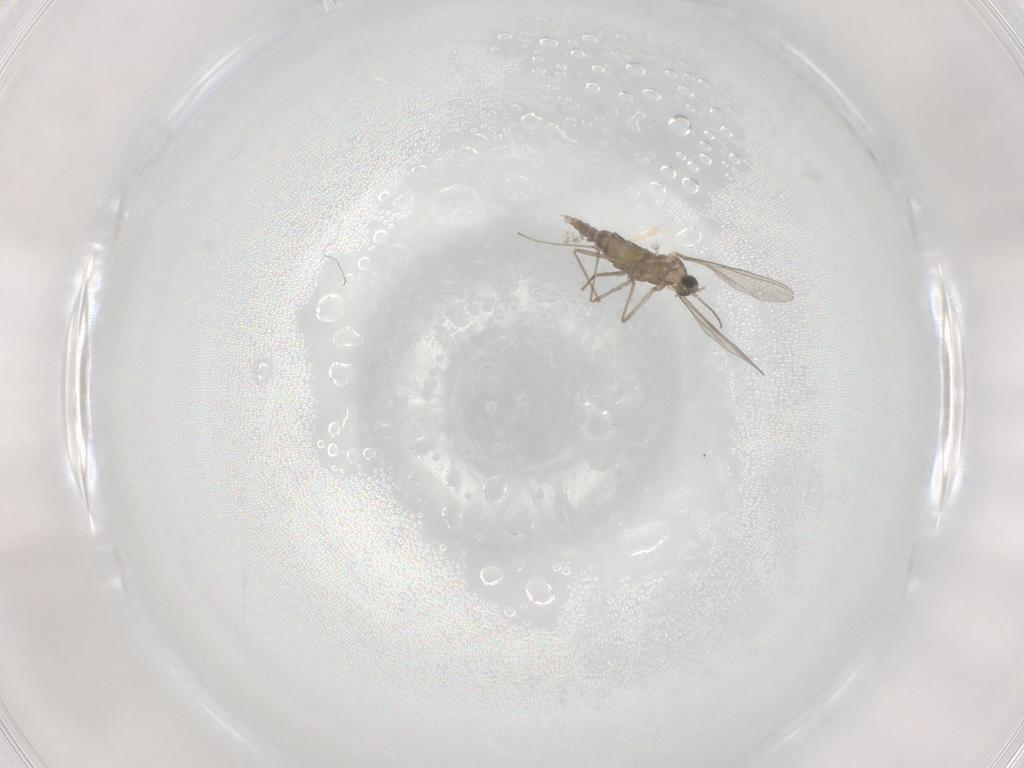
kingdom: Animalia
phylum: Arthropoda
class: Insecta
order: Diptera
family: Cecidomyiidae
